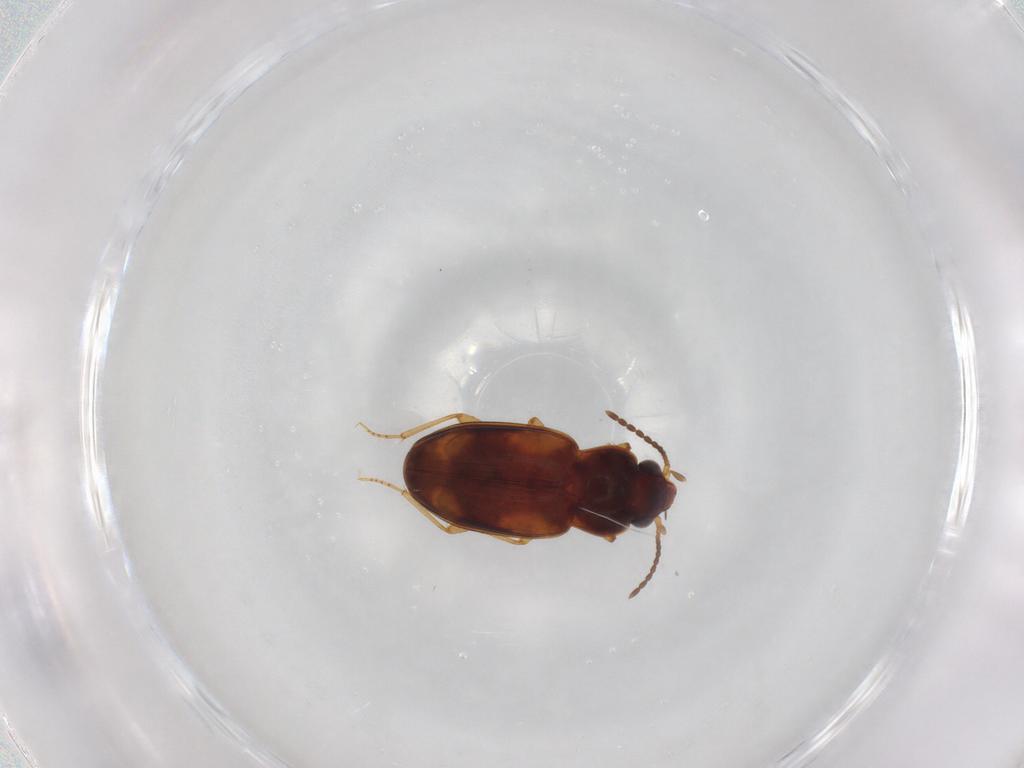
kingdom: Animalia
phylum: Arthropoda
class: Insecta
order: Coleoptera
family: Carabidae
